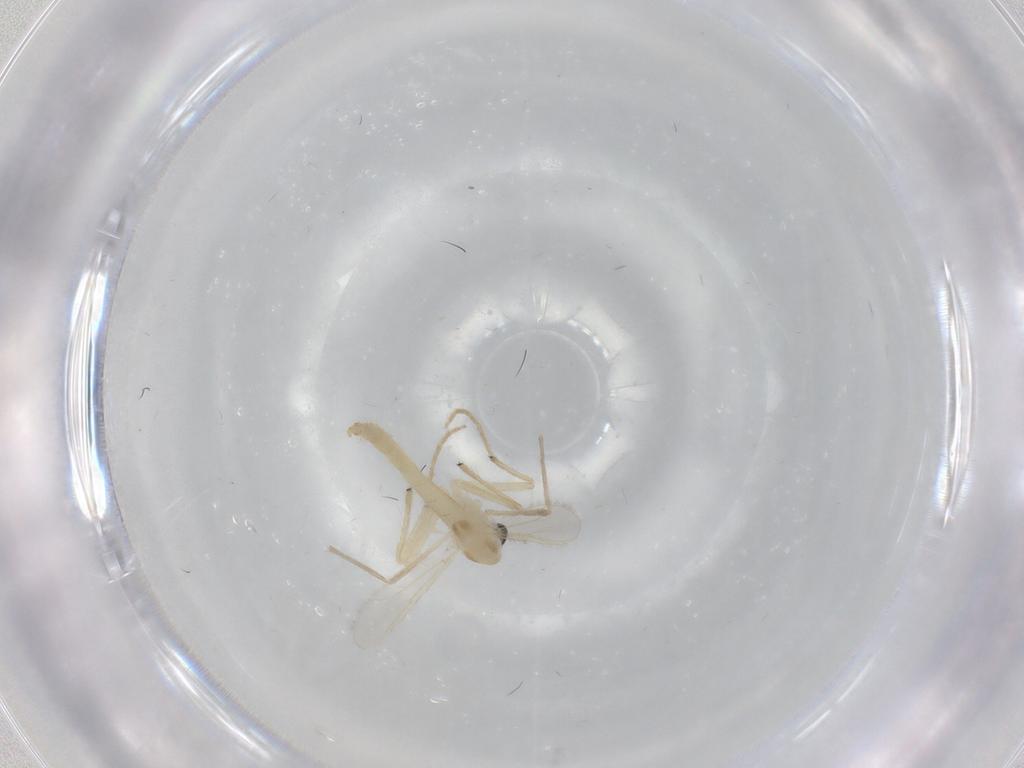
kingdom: Animalia
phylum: Arthropoda
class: Insecta
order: Diptera
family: Chironomidae
